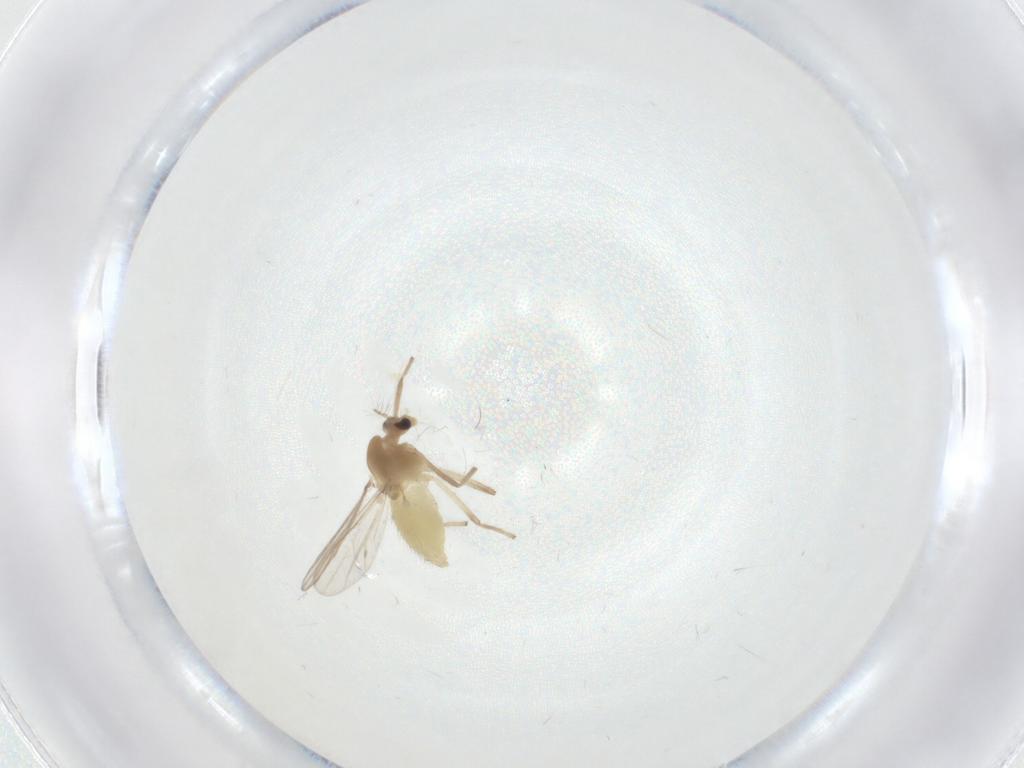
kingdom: Animalia
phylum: Arthropoda
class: Insecta
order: Diptera
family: Chironomidae
